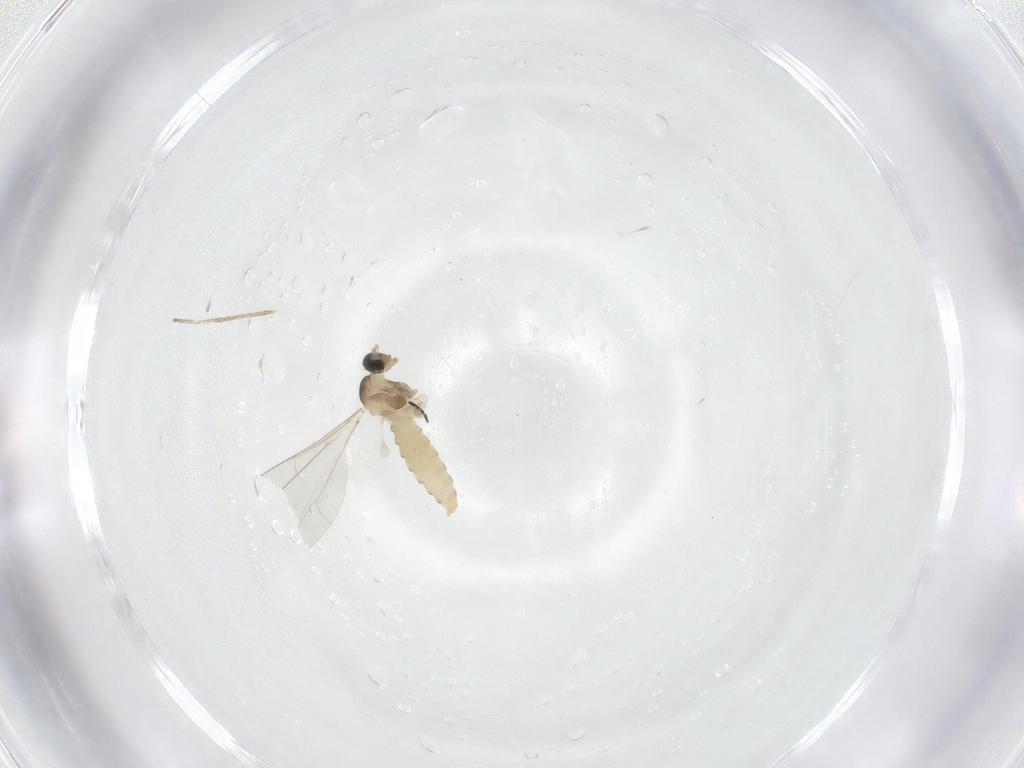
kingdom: Animalia
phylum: Arthropoda
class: Insecta
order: Diptera
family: Cecidomyiidae
